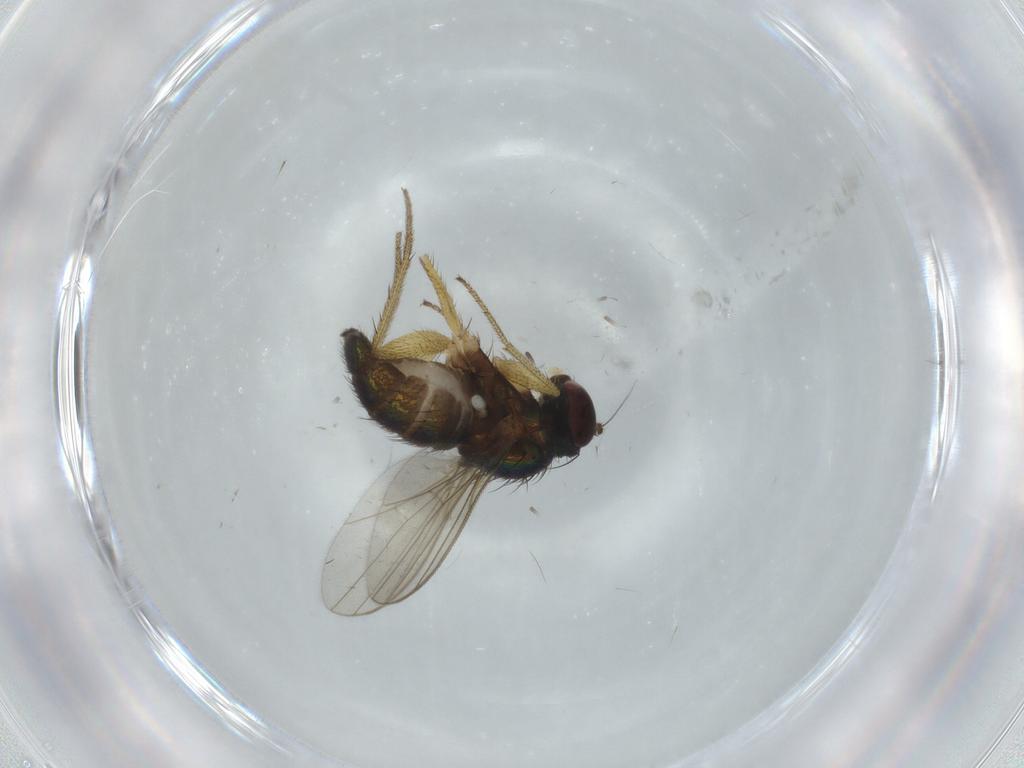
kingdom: Animalia
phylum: Arthropoda
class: Insecta
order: Diptera
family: Dolichopodidae
